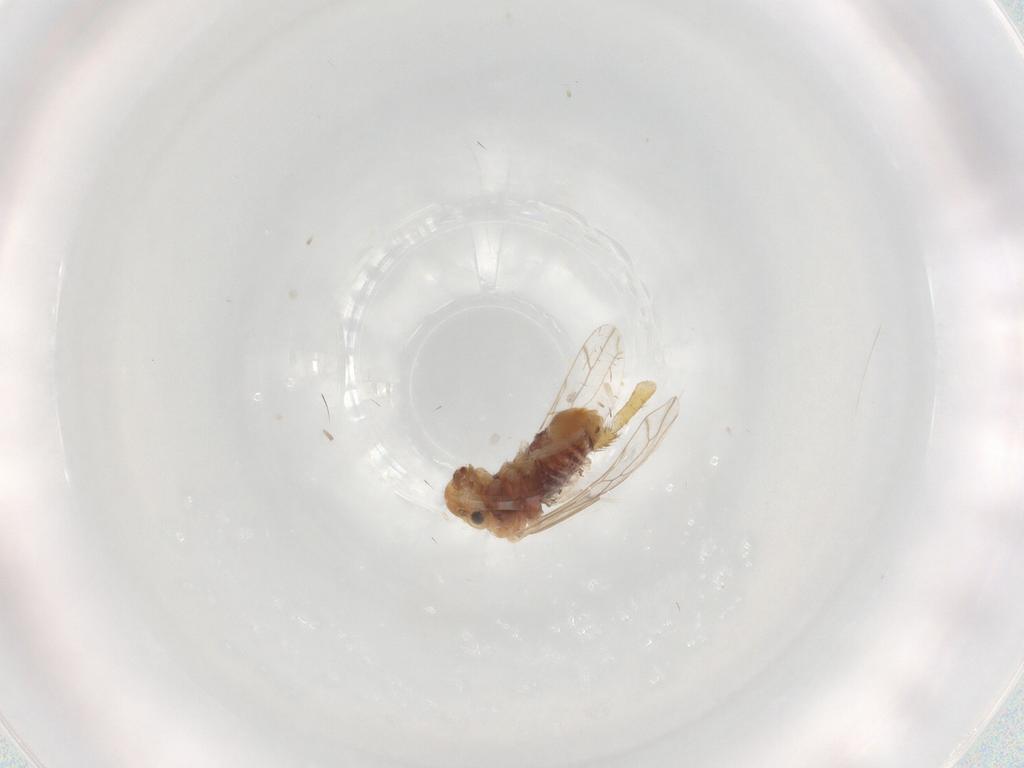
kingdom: Animalia
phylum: Arthropoda
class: Insecta
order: Psocodea
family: Lachesillidae
